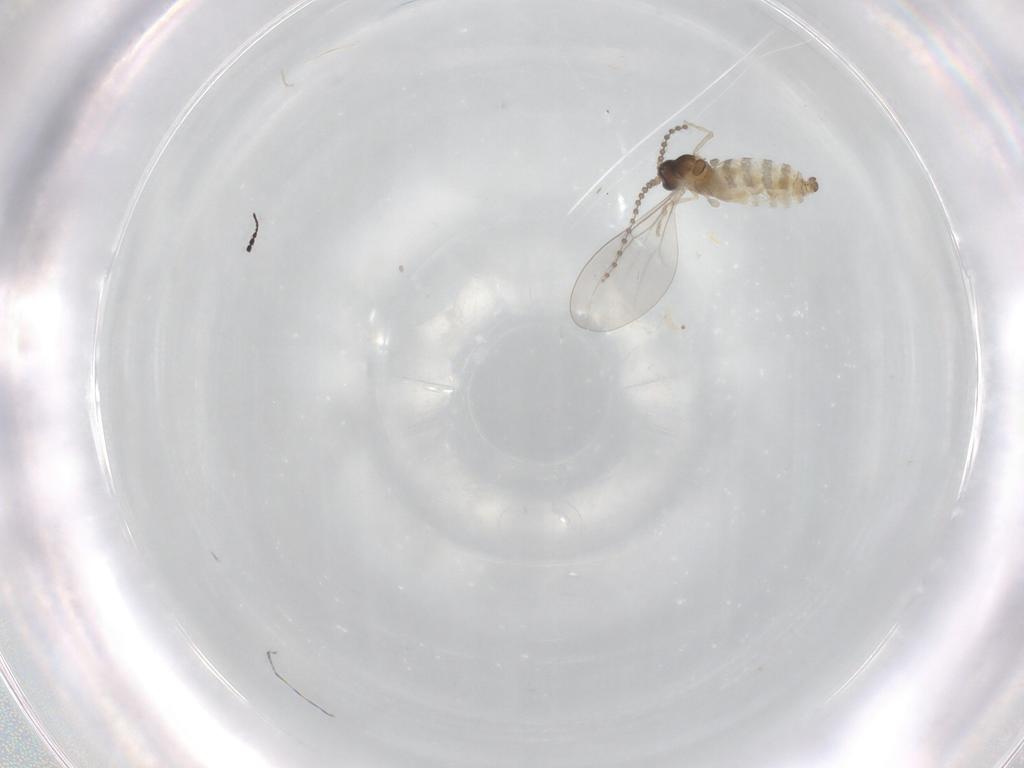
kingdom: Animalia
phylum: Arthropoda
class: Insecta
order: Diptera
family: Cecidomyiidae
